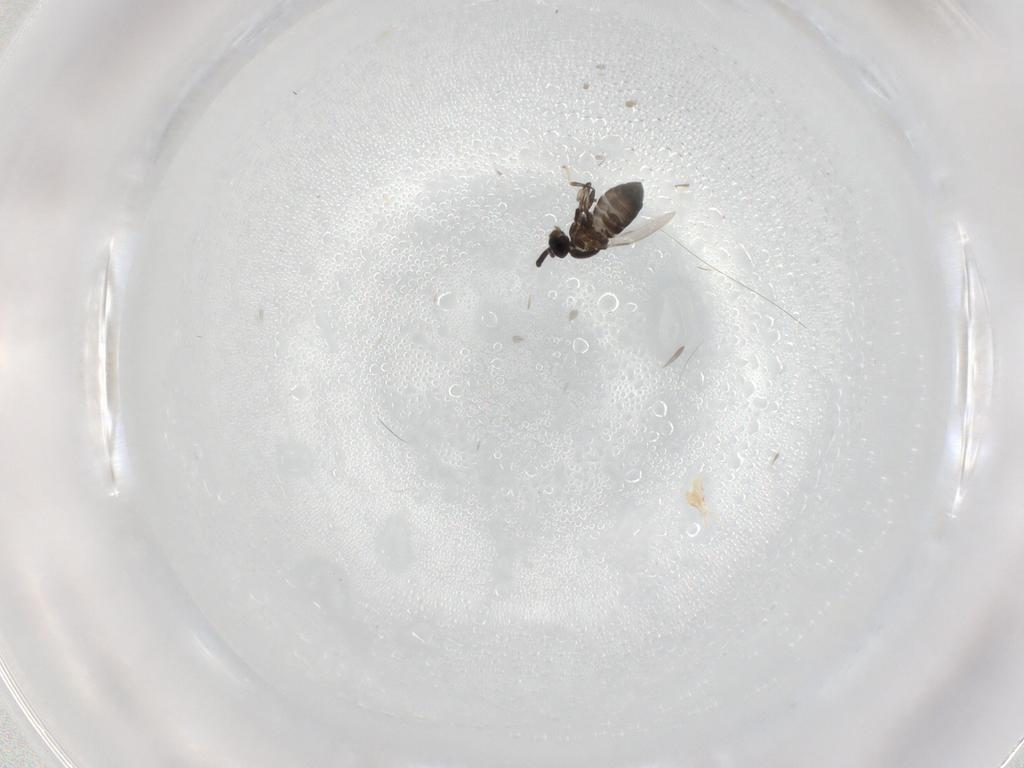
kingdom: Animalia
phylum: Arthropoda
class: Insecta
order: Diptera
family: Scatopsidae
